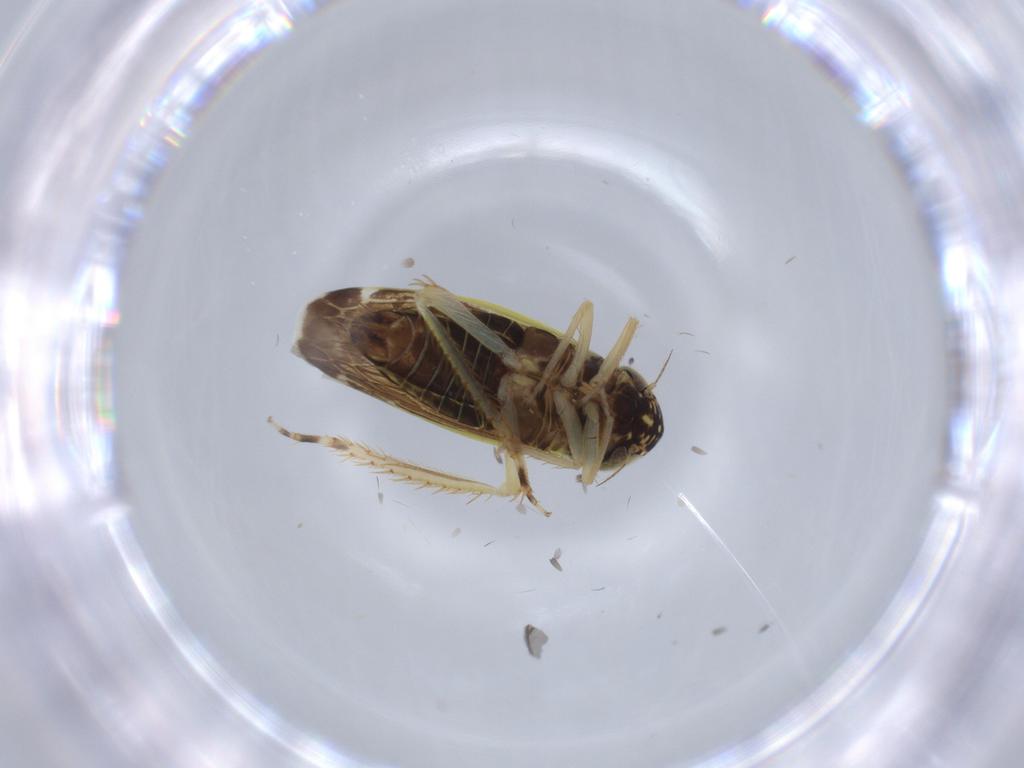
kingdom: Animalia
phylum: Arthropoda
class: Insecta
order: Hemiptera
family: Cicadellidae
